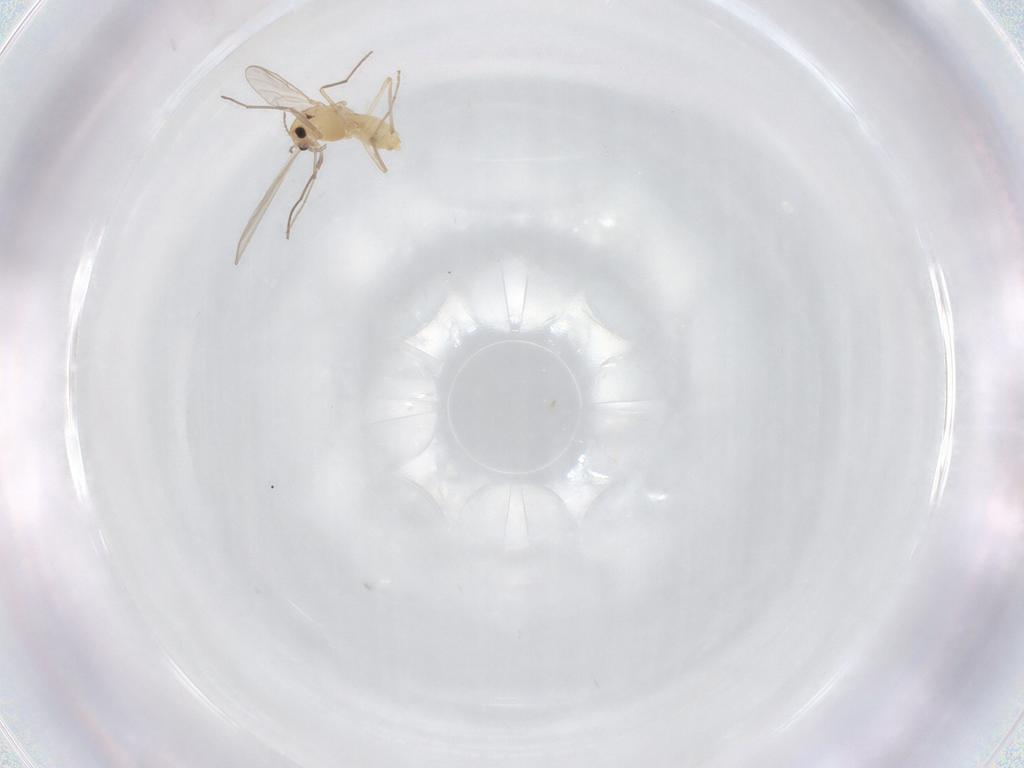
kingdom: Animalia
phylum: Arthropoda
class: Insecta
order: Diptera
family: Chironomidae
